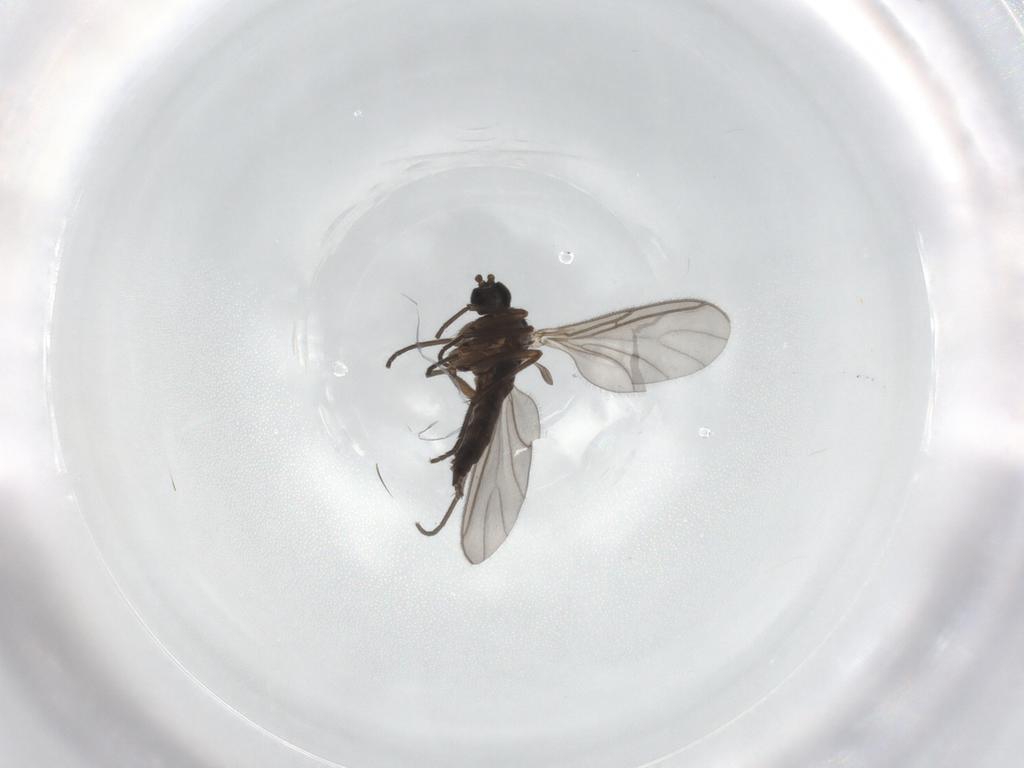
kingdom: Animalia
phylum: Arthropoda
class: Insecta
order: Diptera
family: Sciaridae
